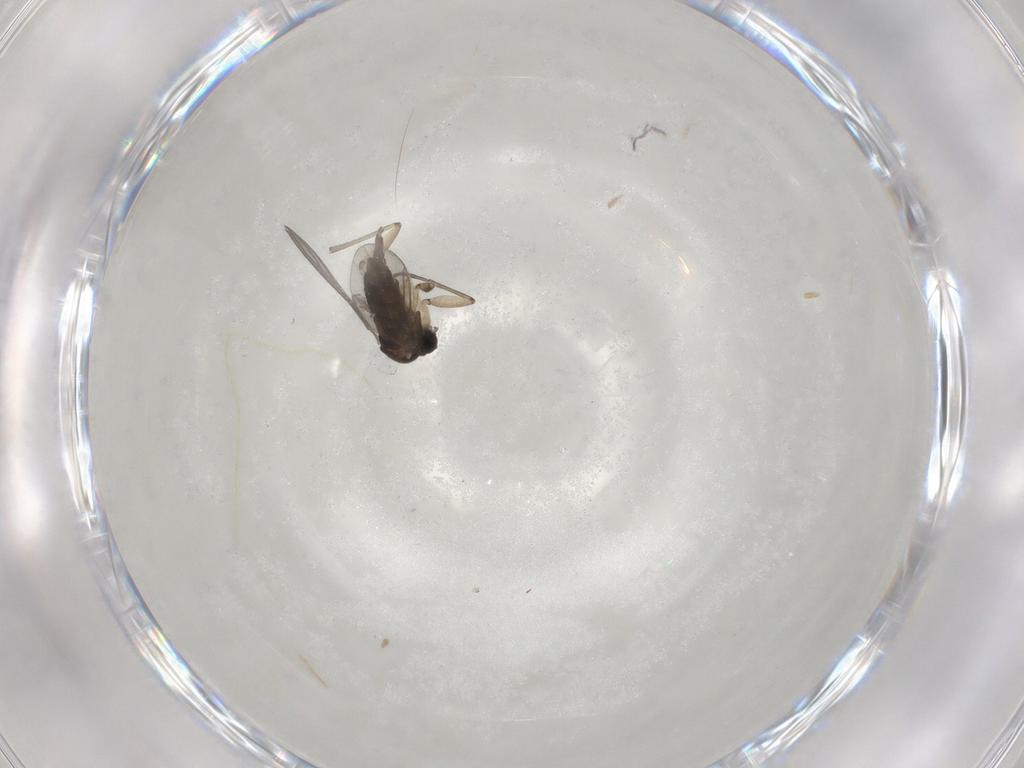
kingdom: Animalia
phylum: Arthropoda
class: Insecta
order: Diptera
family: Sciaridae
